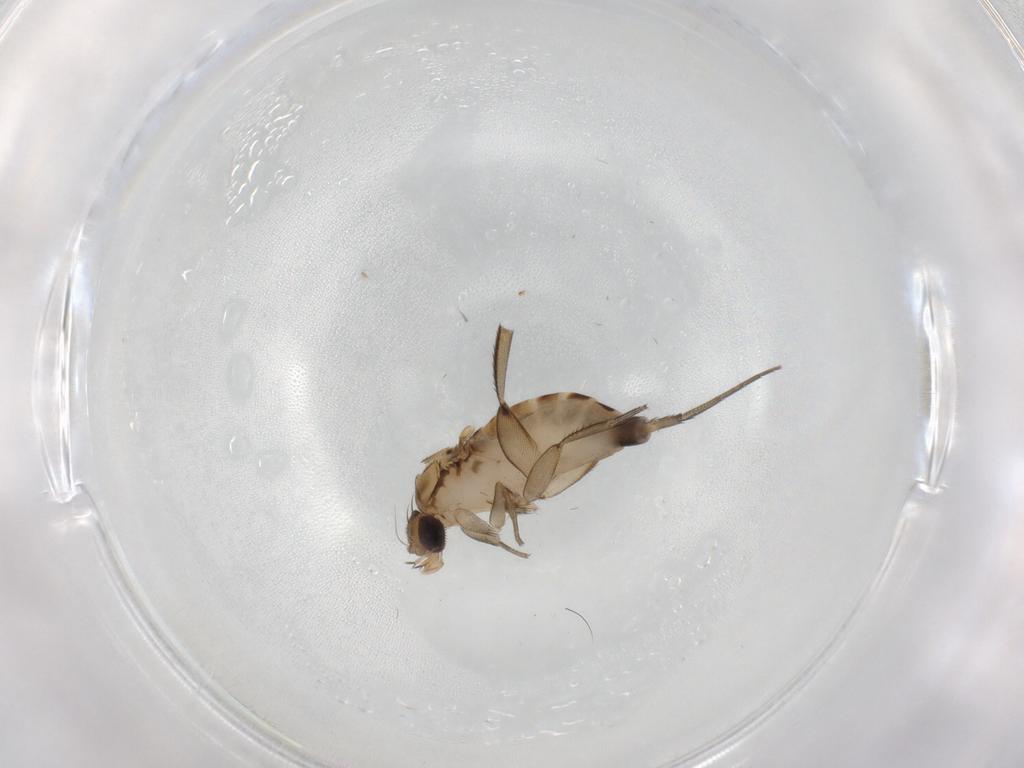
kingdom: Animalia
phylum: Arthropoda
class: Insecta
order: Diptera
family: Phoridae
